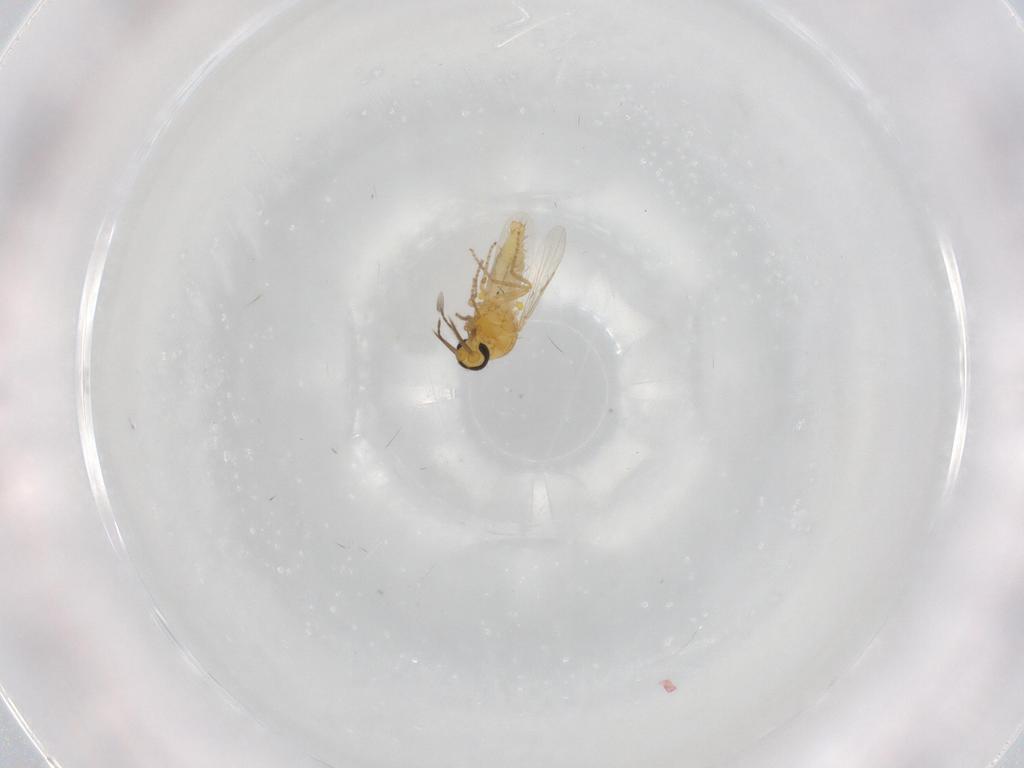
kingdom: Animalia
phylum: Arthropoda
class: Insecta
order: Diptera
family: Ceratopogonidae
